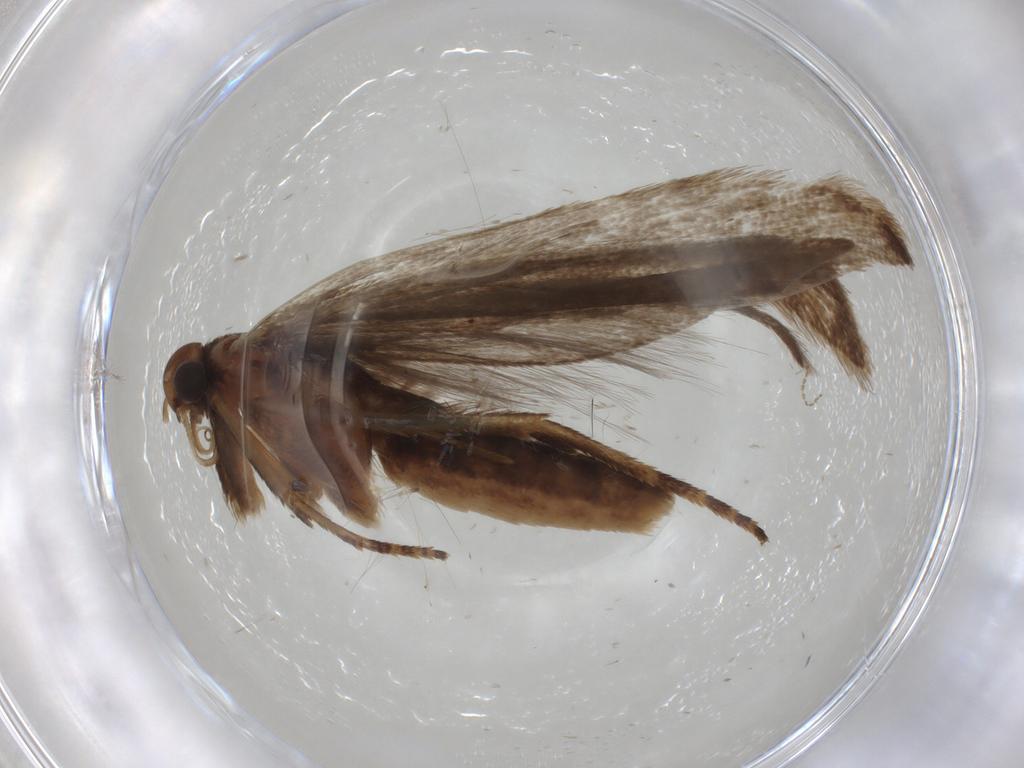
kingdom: Animalia
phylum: Arthropoda
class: Insecta
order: Lepidoptera
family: Gelechiidae
